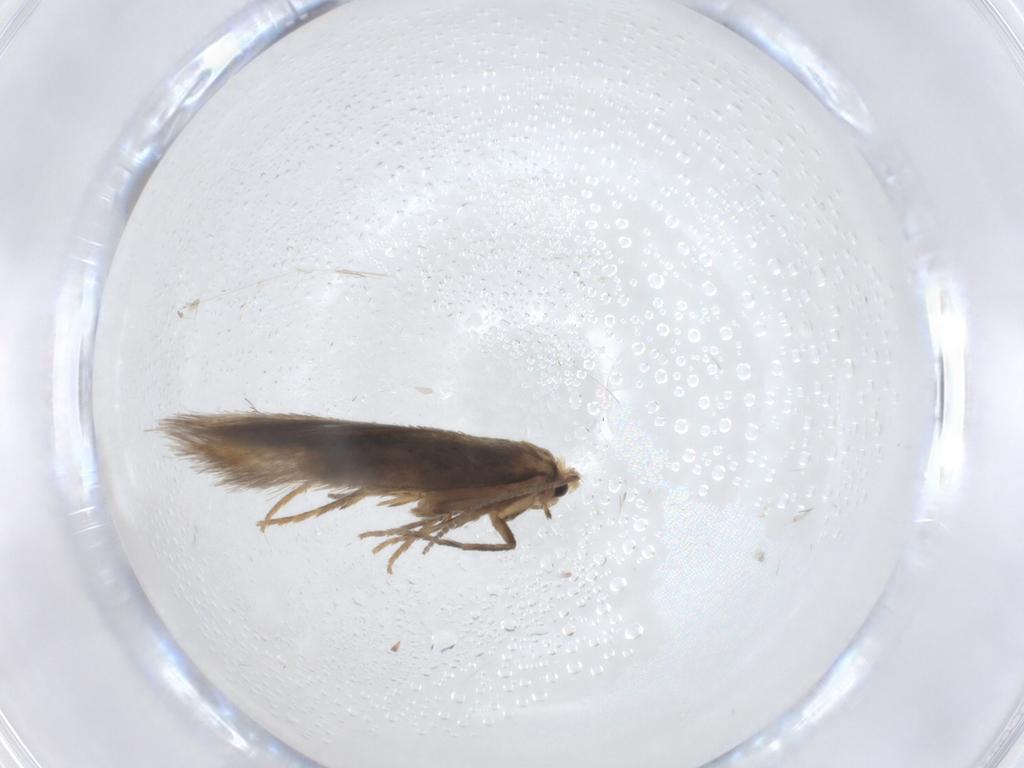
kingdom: Animalia
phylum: Arthropoda
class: Insecta
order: Lepidoptera
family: Nepticulidae
